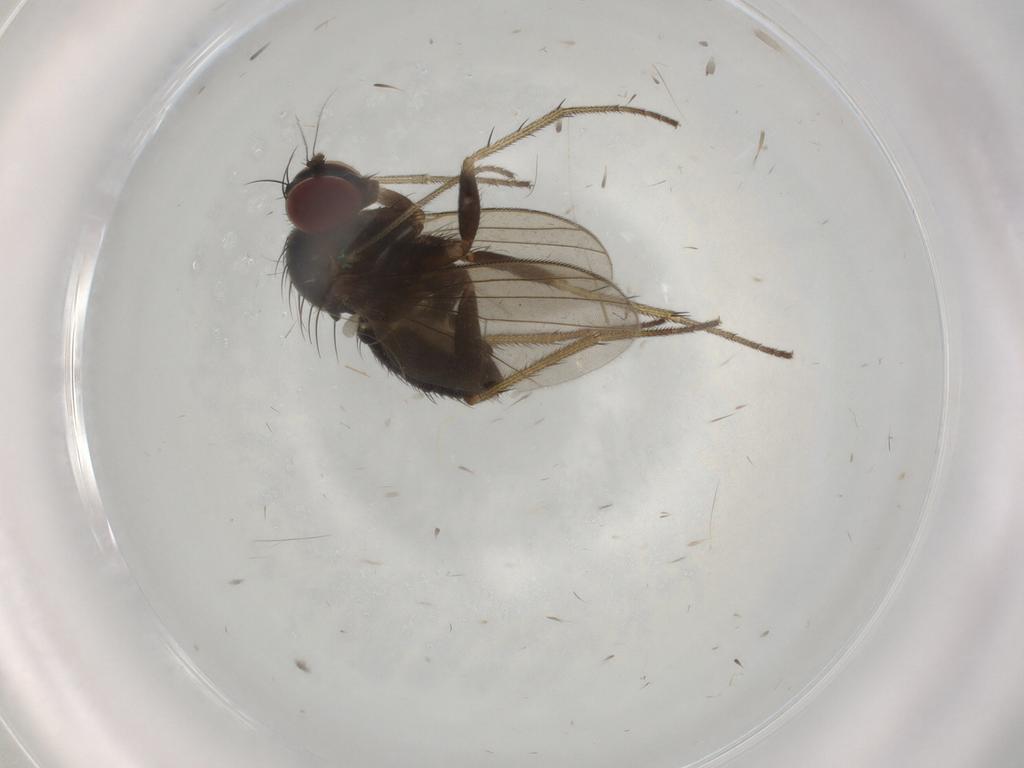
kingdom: Animalia
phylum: Arthropoda
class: Insecta
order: Diptera
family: Dolichopodidae
